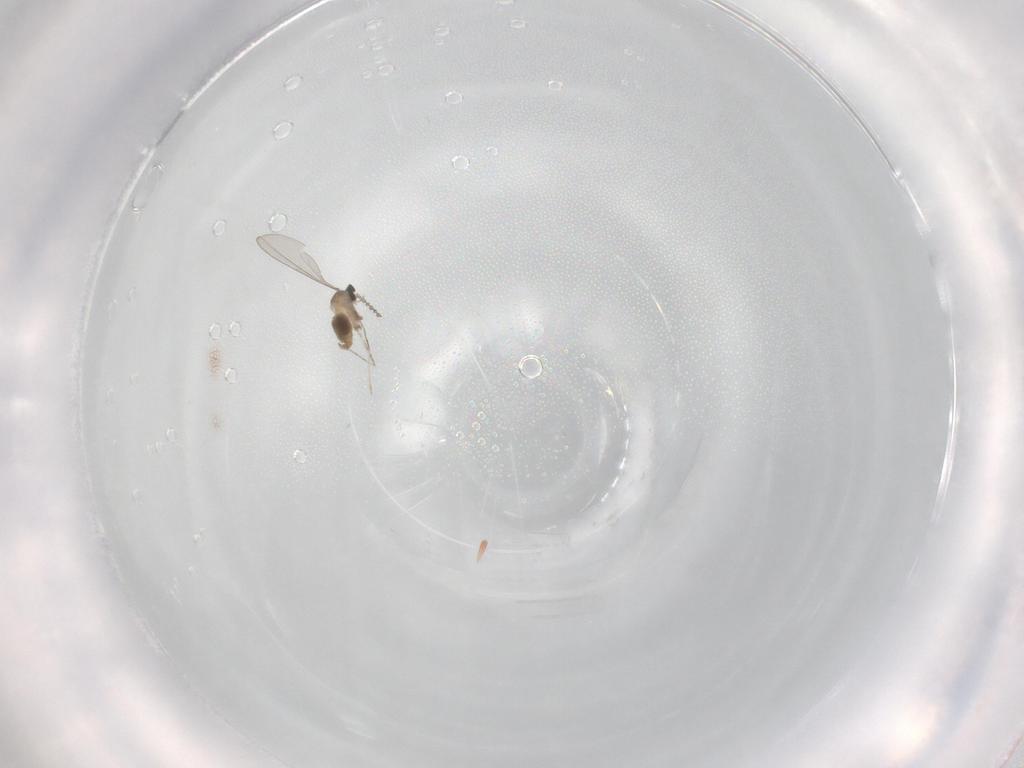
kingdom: Animalia
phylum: Arthropoda
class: Insecta
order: Diptera
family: Cecidomyiidae
